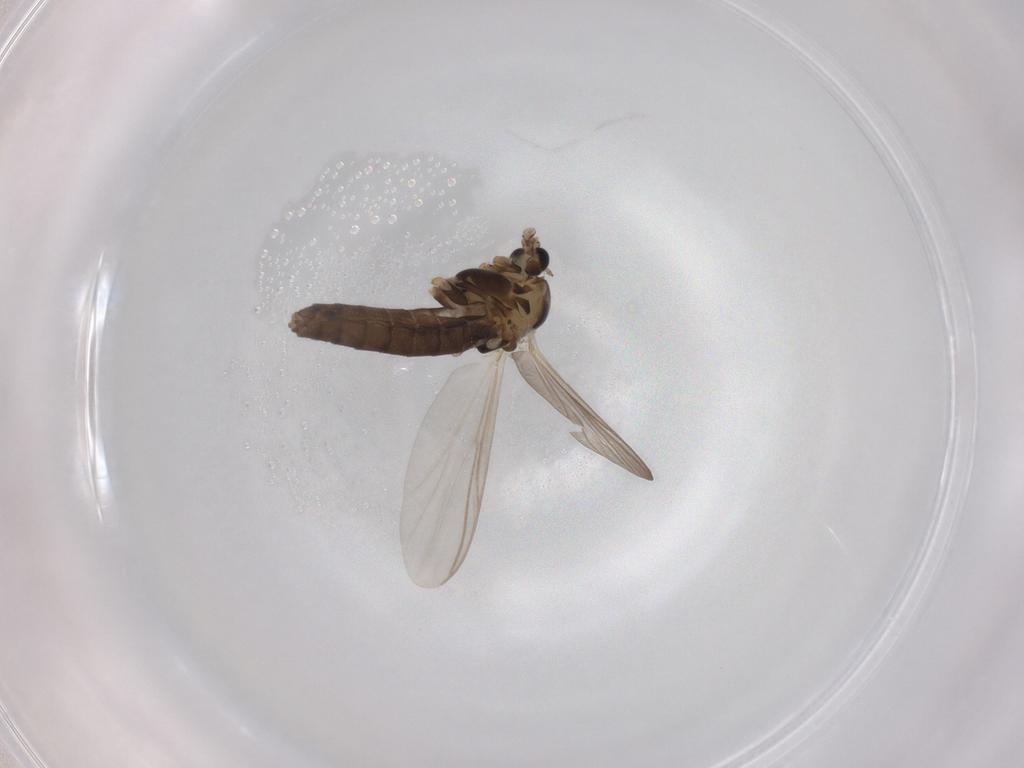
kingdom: Animalia
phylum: Arthropoda
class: Insecta
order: Diptera
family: Chironomidae
